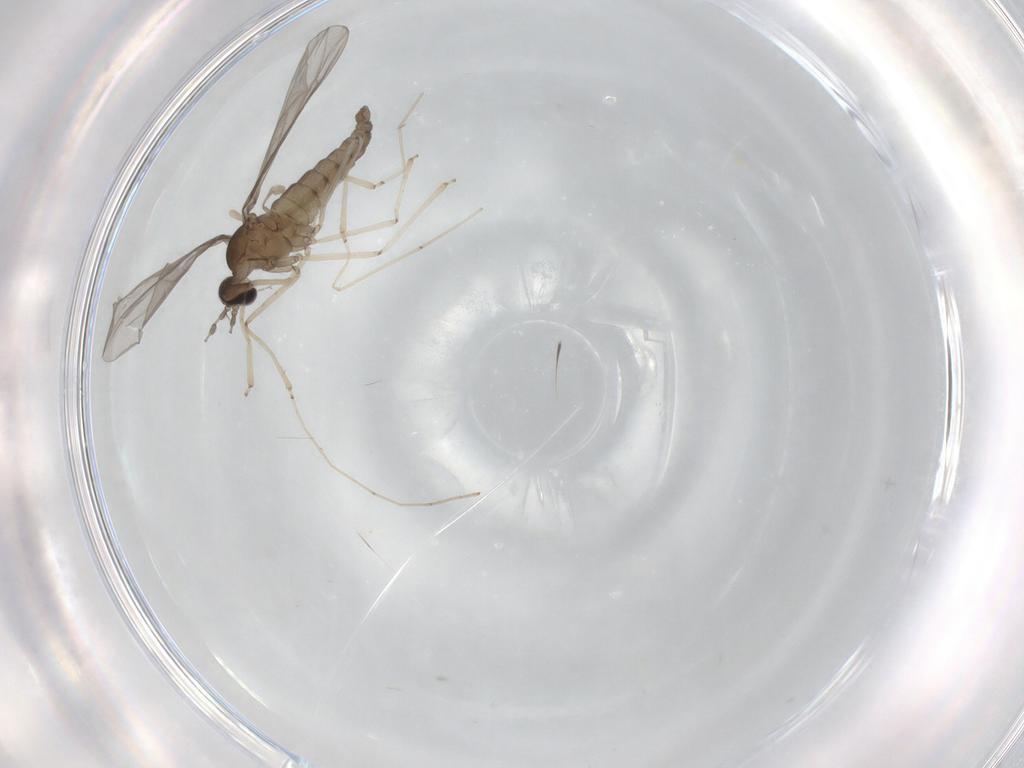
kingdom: Animalia
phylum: Arthropoda
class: Insecta
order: Diptera
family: Cecidomyiidae
